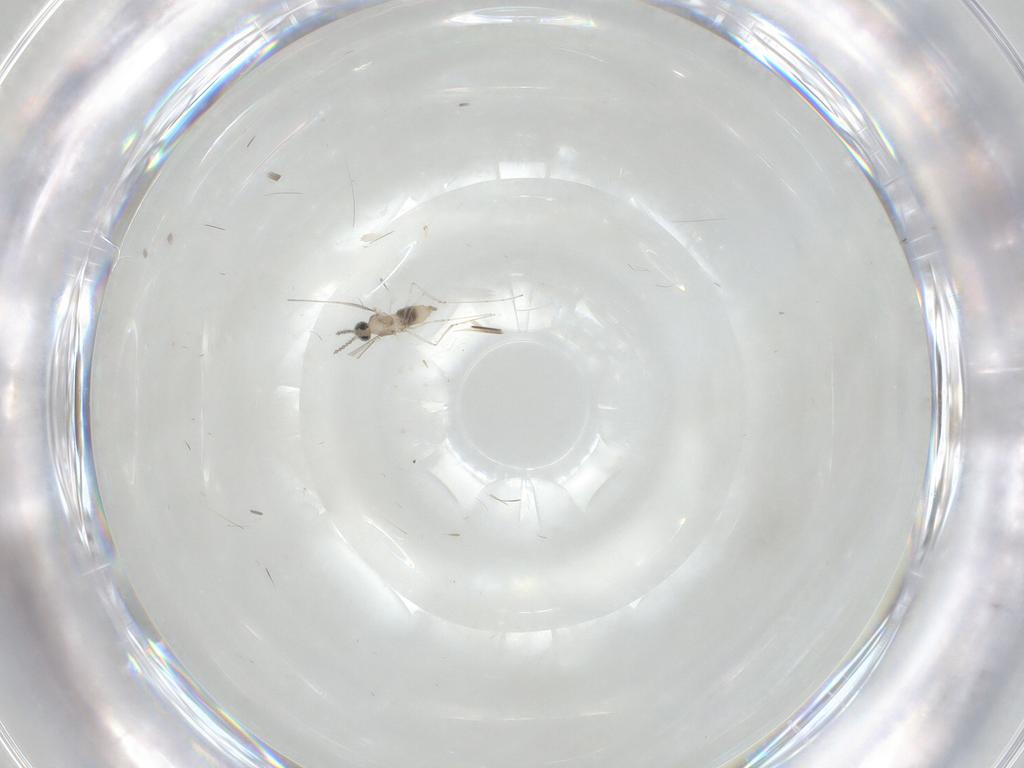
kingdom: Animalia
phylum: Arthropoda
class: Insecta
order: Diptera
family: Cecidomyiidae
